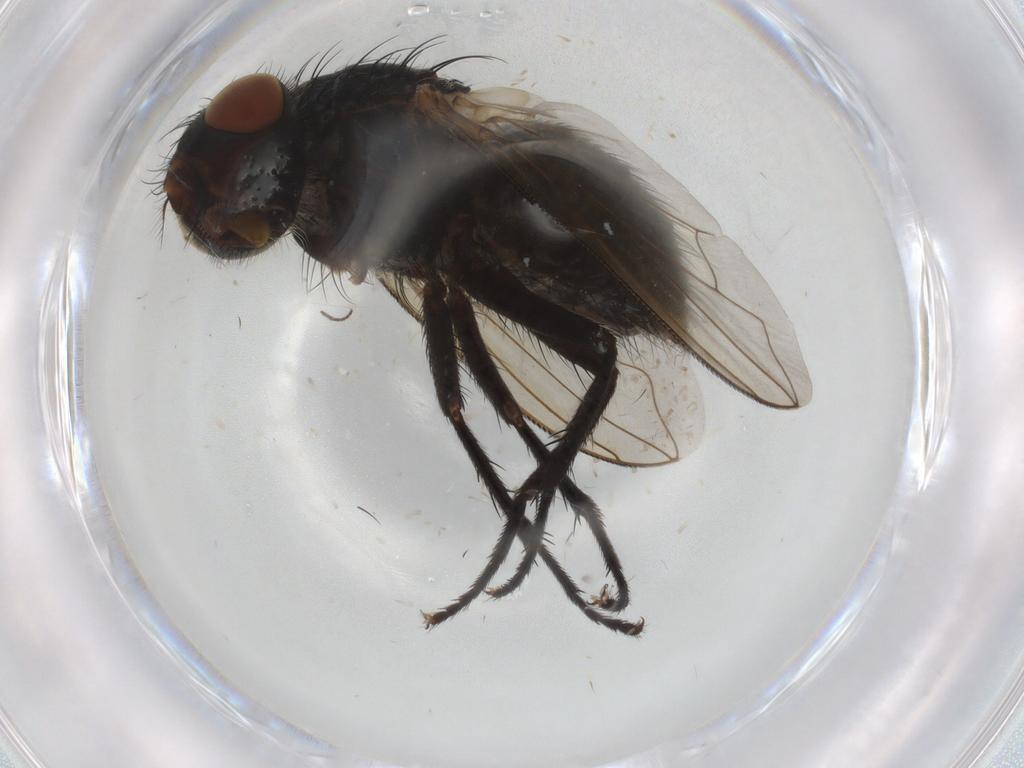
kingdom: Animalia
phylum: Arthropoda
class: Insecta
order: Diptera
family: Polleniidae
